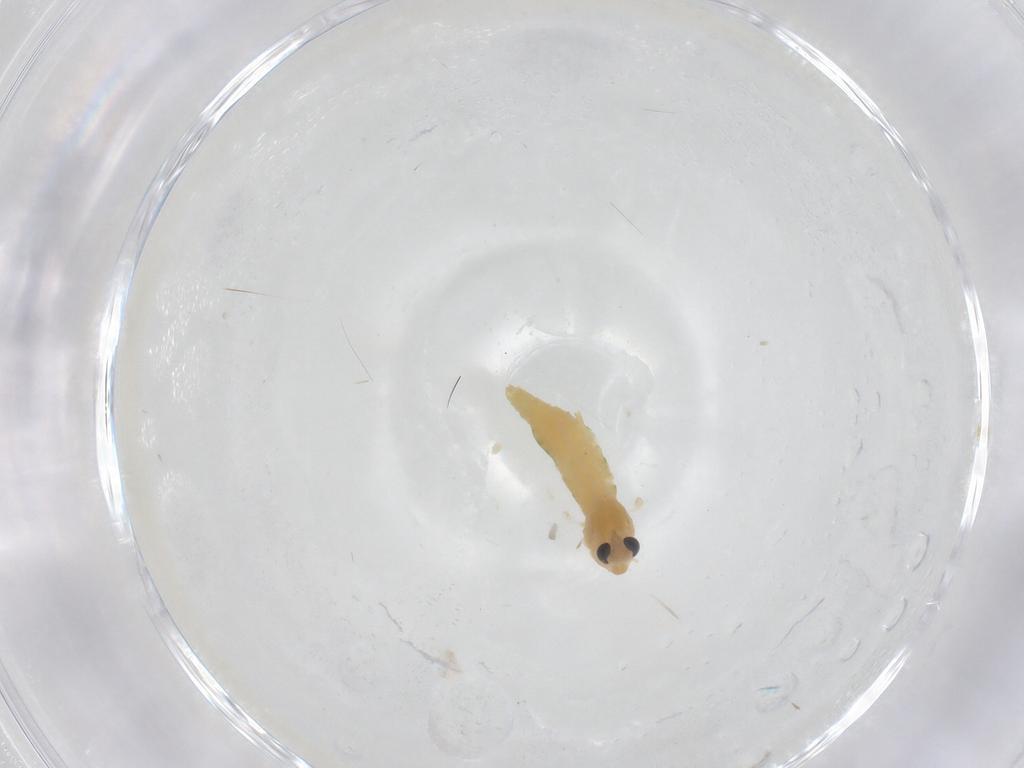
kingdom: Animalia
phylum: Arthropoda
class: Insecta
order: Diptera
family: Chironomidae
